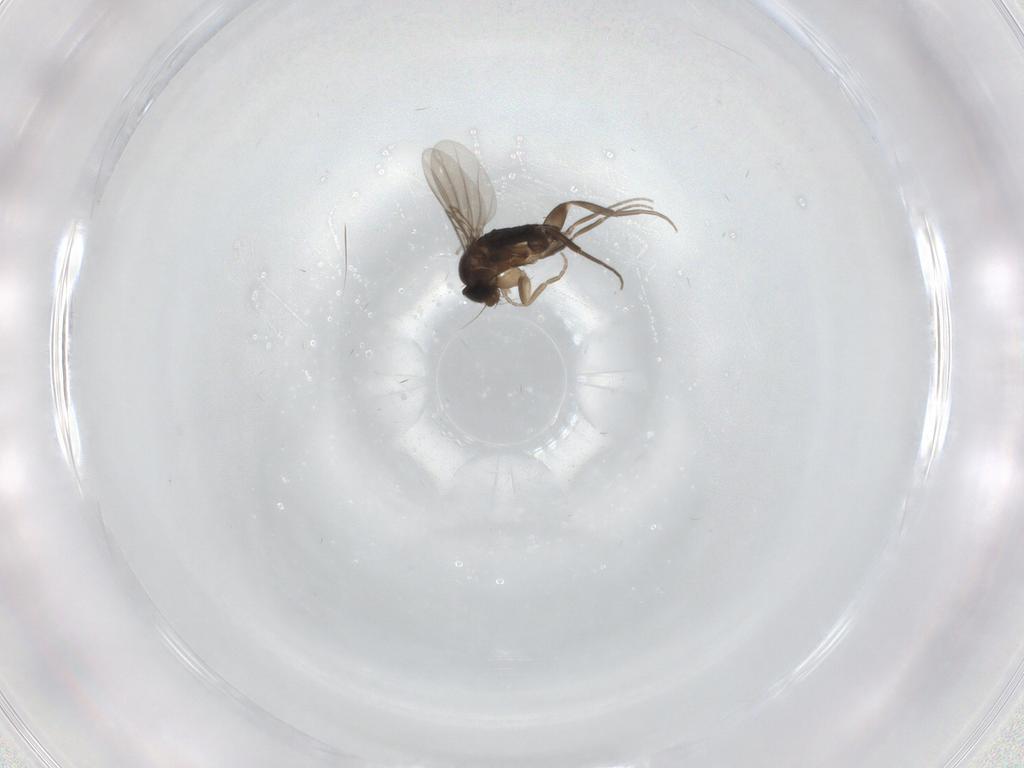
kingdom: Animalia
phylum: Arthropoda
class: Insecta
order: Diptera
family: Phoridae
